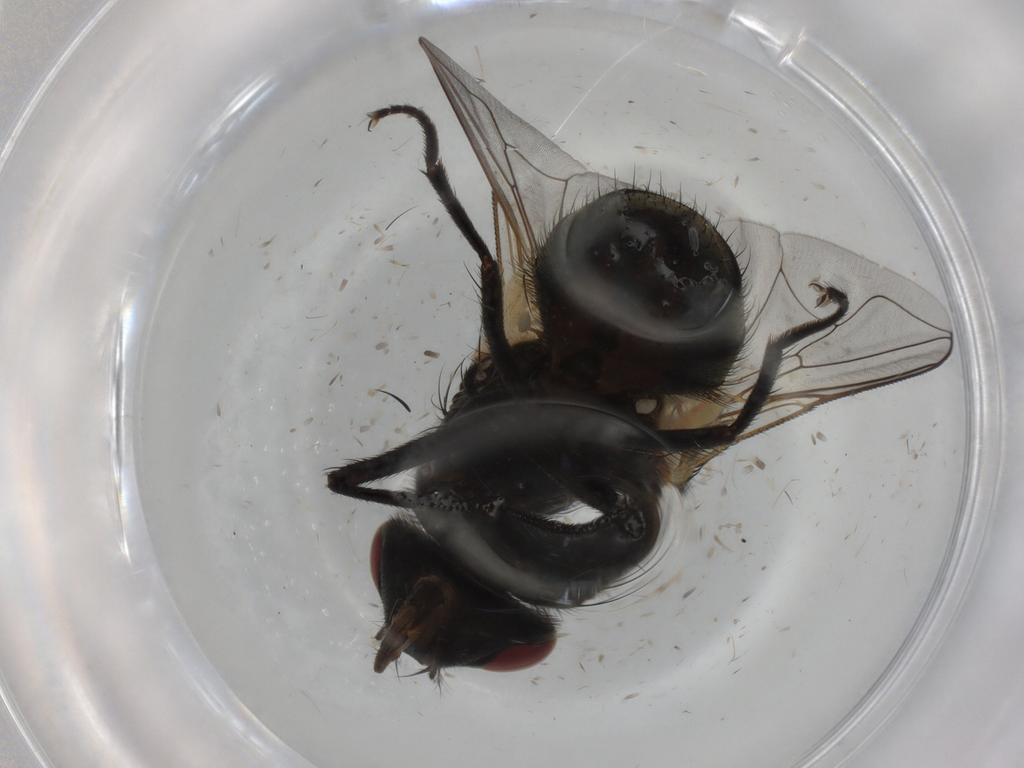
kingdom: Animalia
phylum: Arthropoda
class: Insecta
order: Diptera
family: Muscidae
